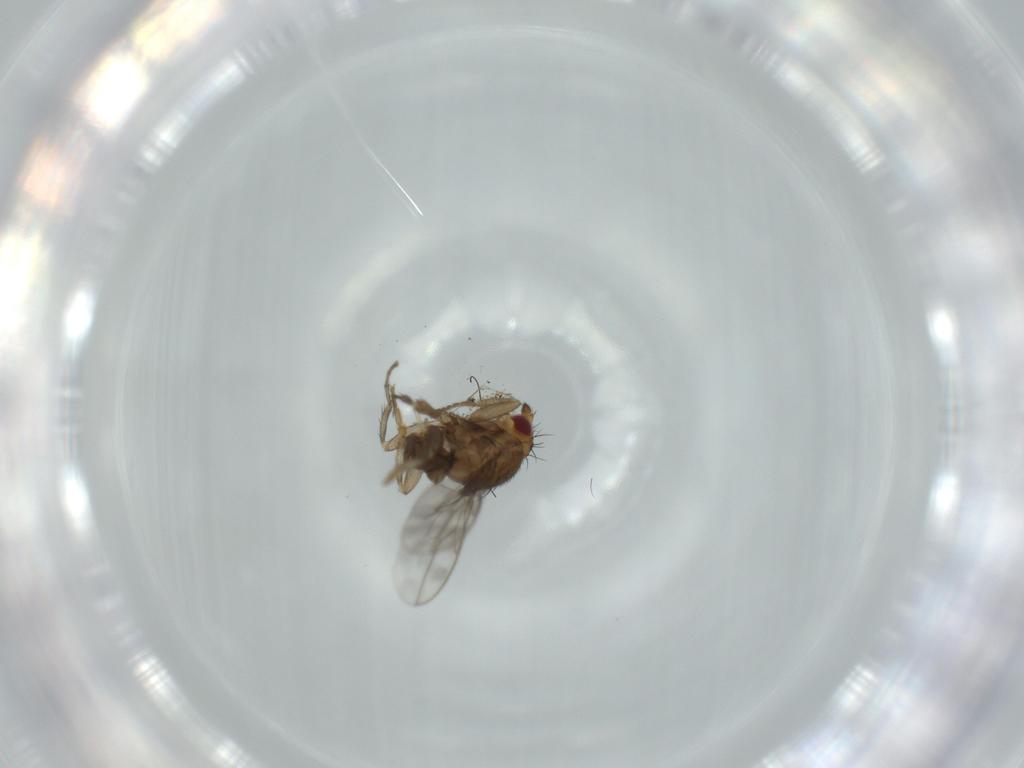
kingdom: Animalia
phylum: Arthropoda
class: Insecta
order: Diptera
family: Sphaeroceridae
